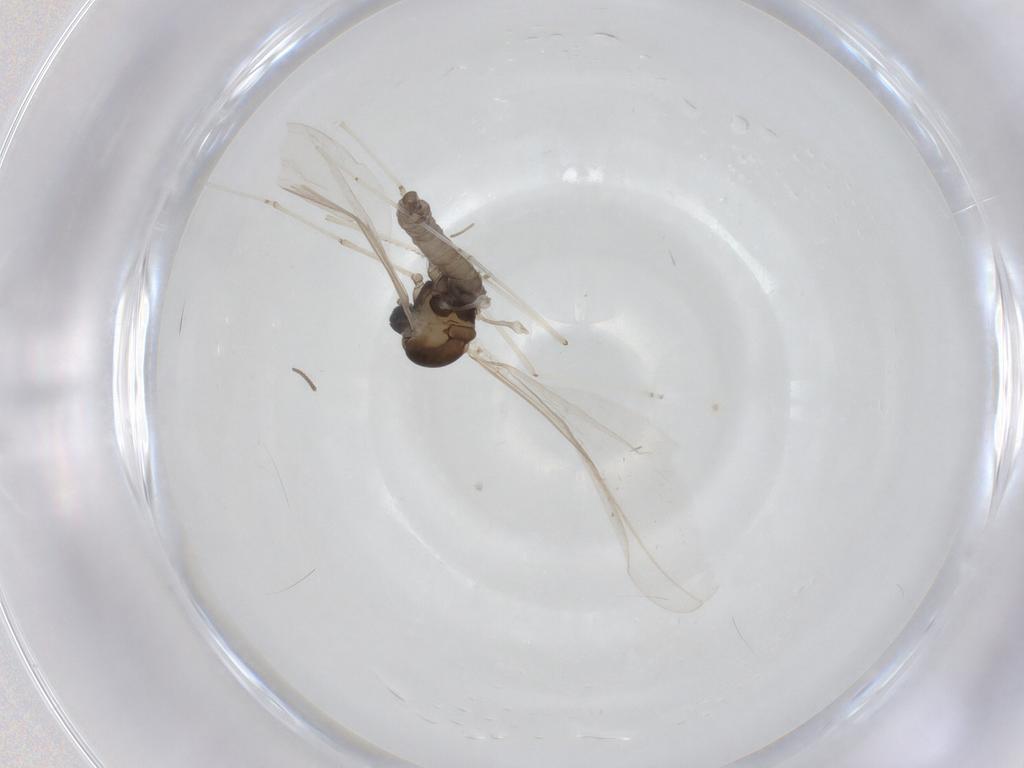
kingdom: Animalia
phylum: Arthropoda
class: Insecta
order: Diptera
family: Cecidomyiidae
